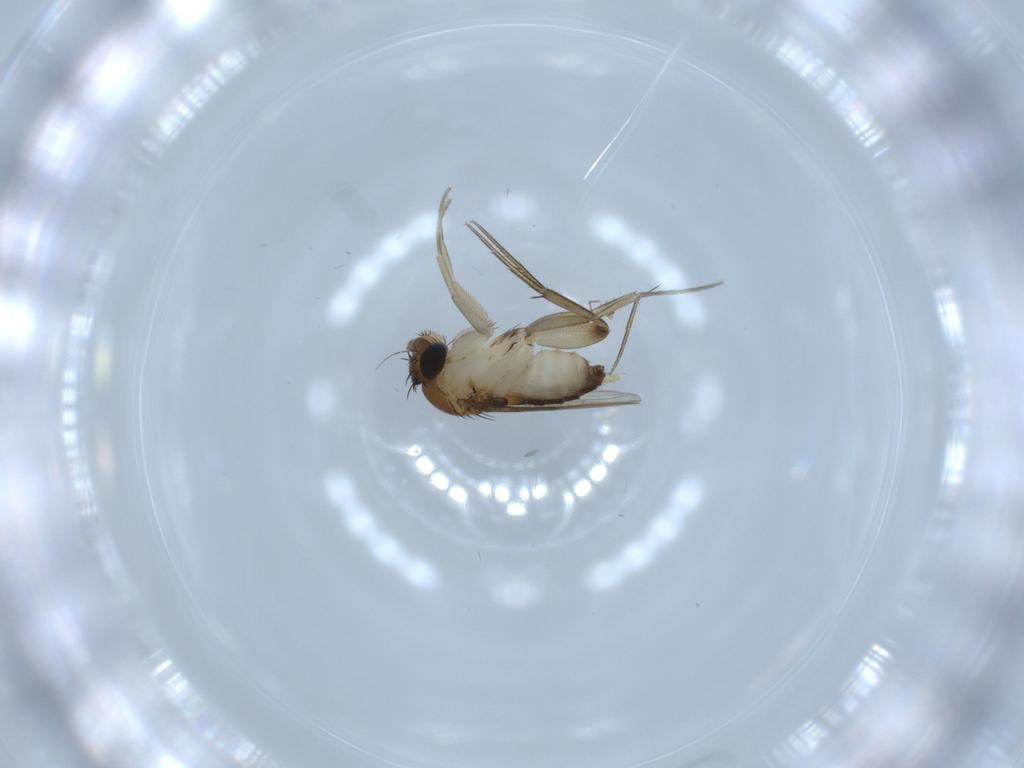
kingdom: Animalia
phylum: Arthropoda
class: Insecta
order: Diptera
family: Phoridae
